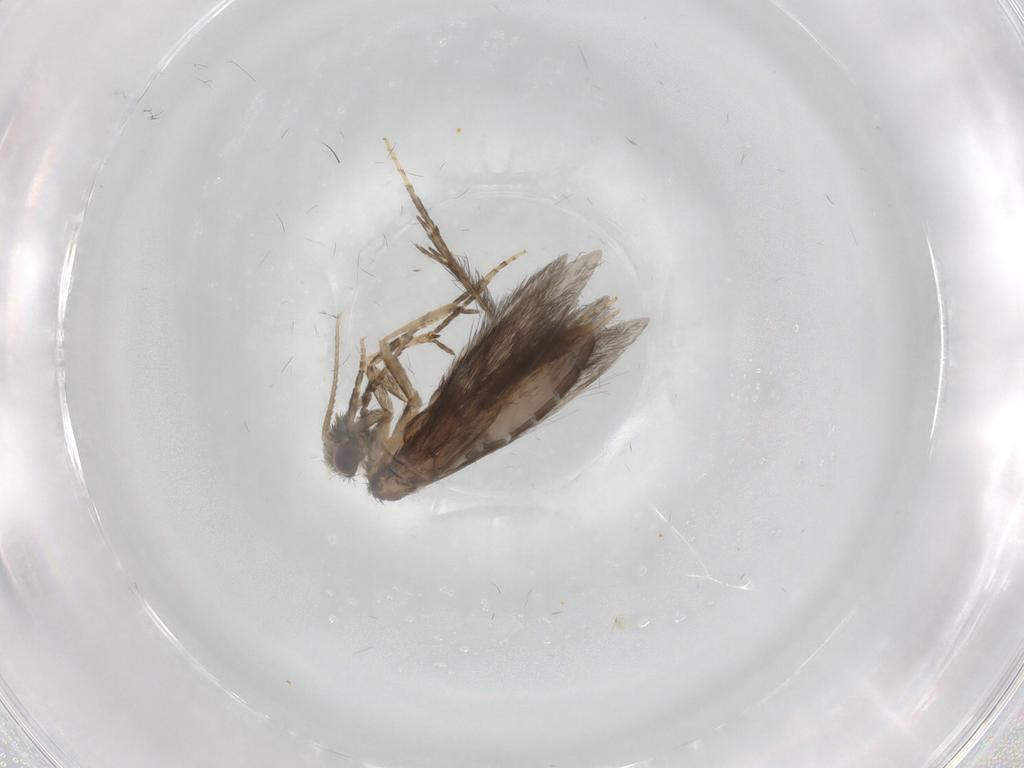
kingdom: Animalia
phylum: Arthropoda
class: Insecta
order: Trichoptera
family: Hydroptilidae
